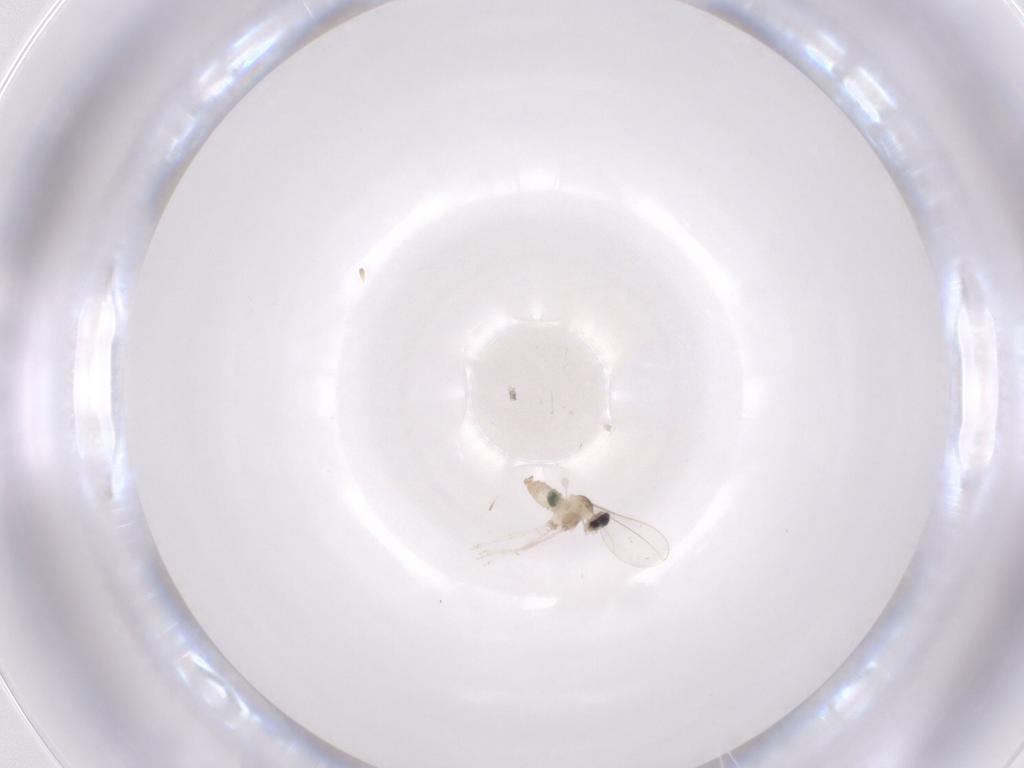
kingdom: Animalia
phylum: Arthropoda
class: Insecta
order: Diptera
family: Cecidomyiidae
